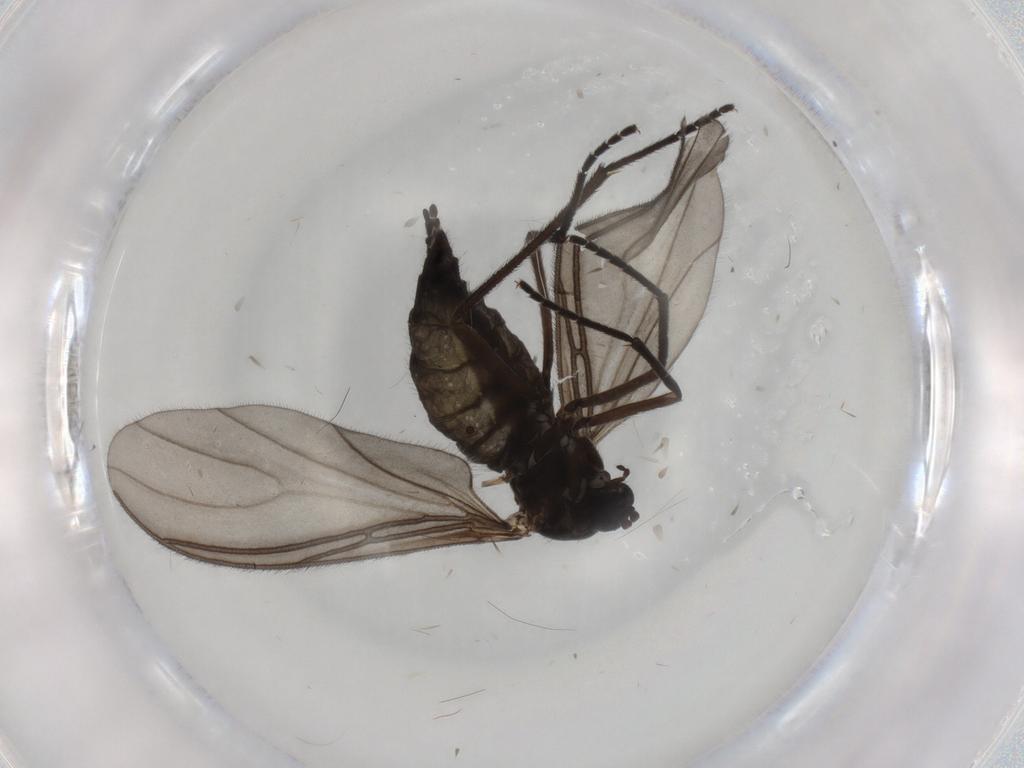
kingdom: Animalia
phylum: Arthropoda
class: Insecta
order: Diptera
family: Sciaridae
